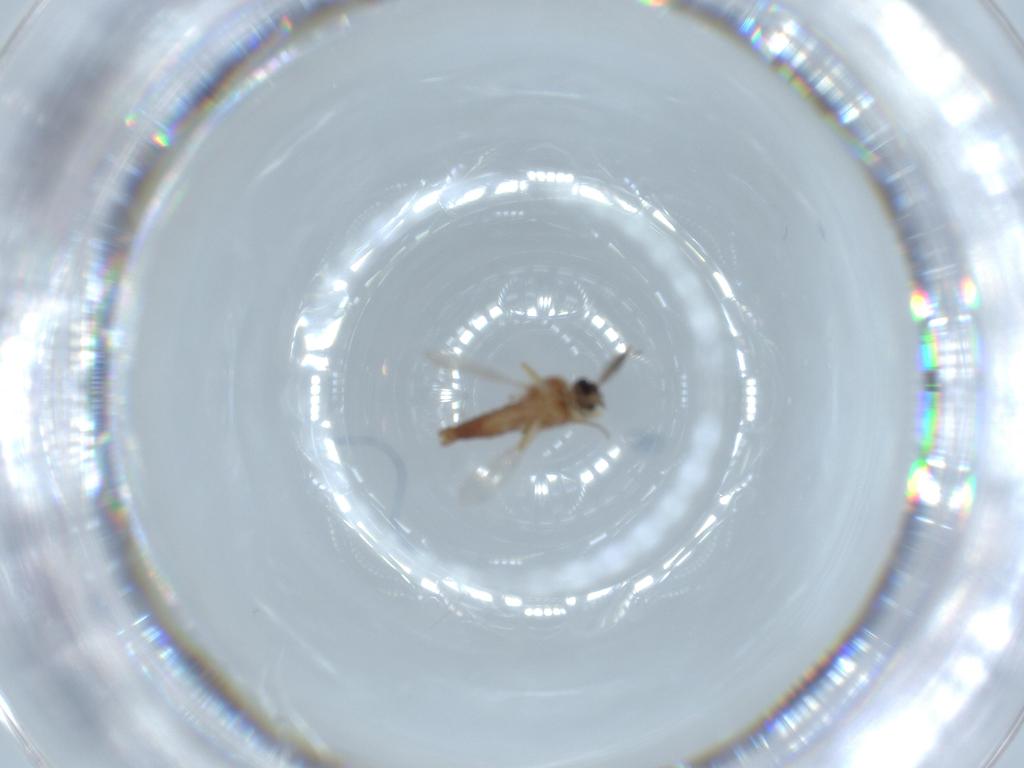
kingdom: Animalia
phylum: Arthropoda
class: Insecta
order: Diptera
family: Ceratopogonidae
